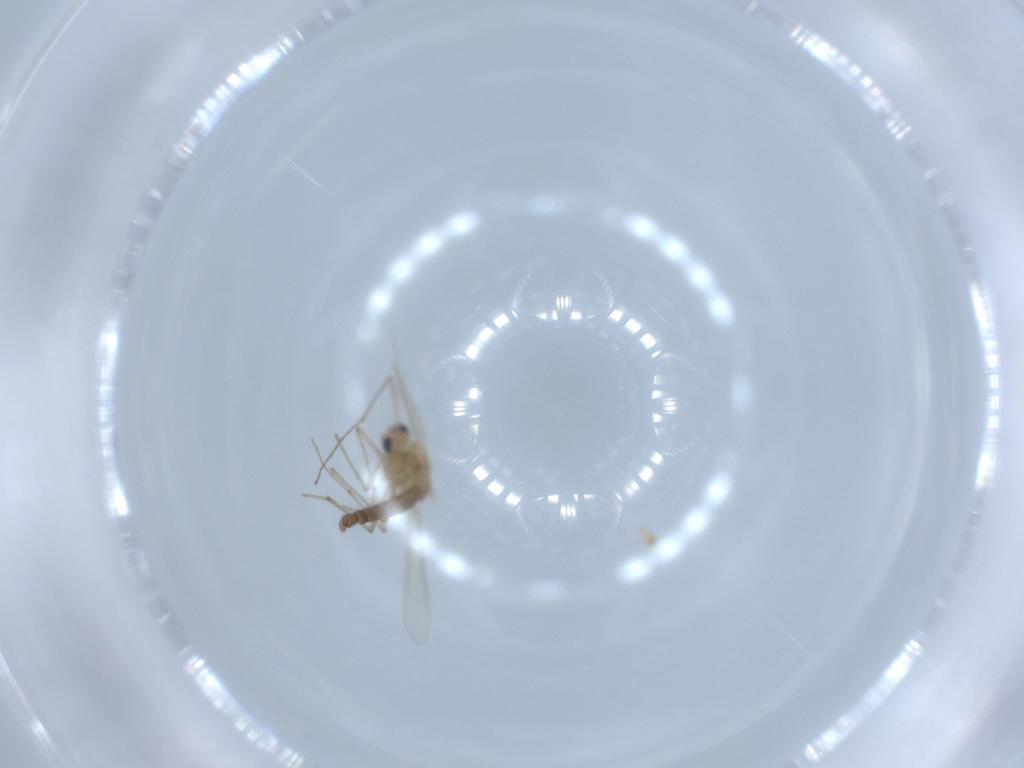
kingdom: Animalia
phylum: Arthropoda
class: Insecta
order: Diptera
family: Chironomidae
